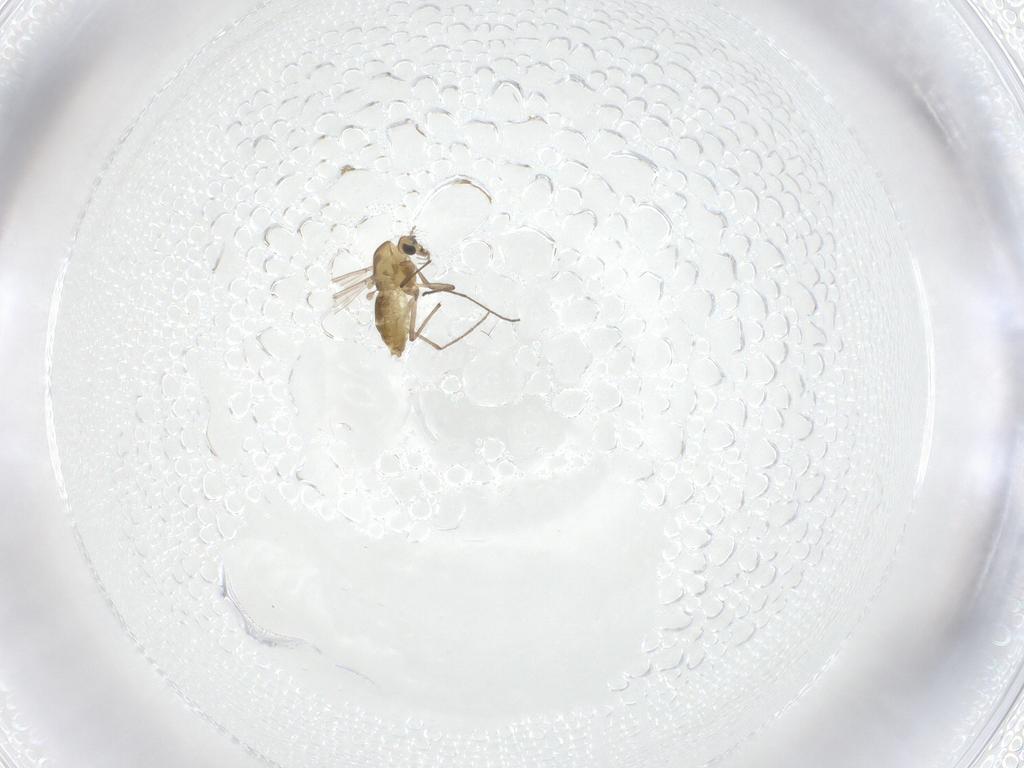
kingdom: Animalia
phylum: Arthropoda
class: Insecta
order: Diptera
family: Chironomidae
